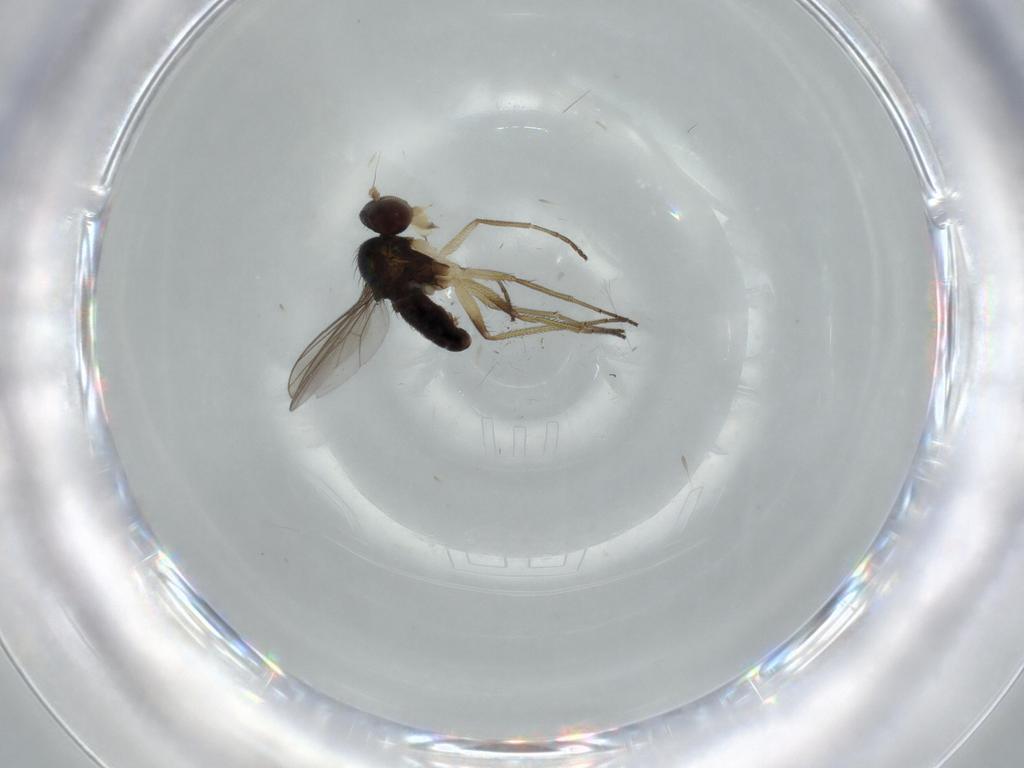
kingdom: Animalia
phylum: Arthropoda
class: Insecta
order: Diptera
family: Dolichopodidae
